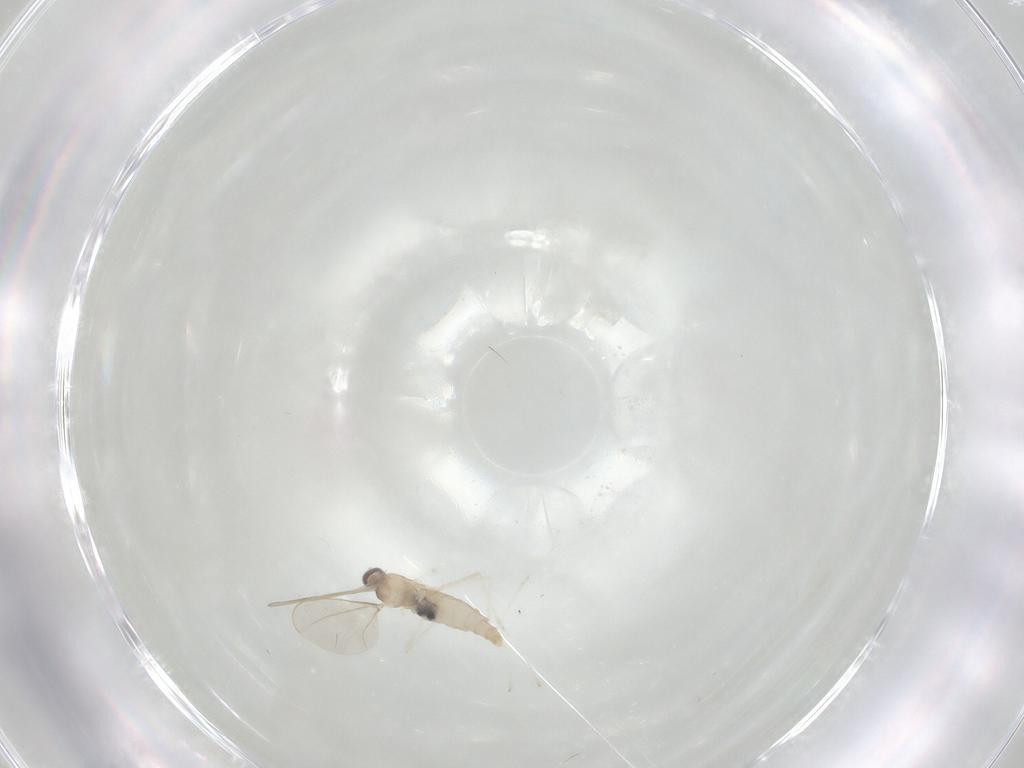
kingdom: Animalia
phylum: Arthropoda
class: Insecta
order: Diptera
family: Cecidomyiidae
